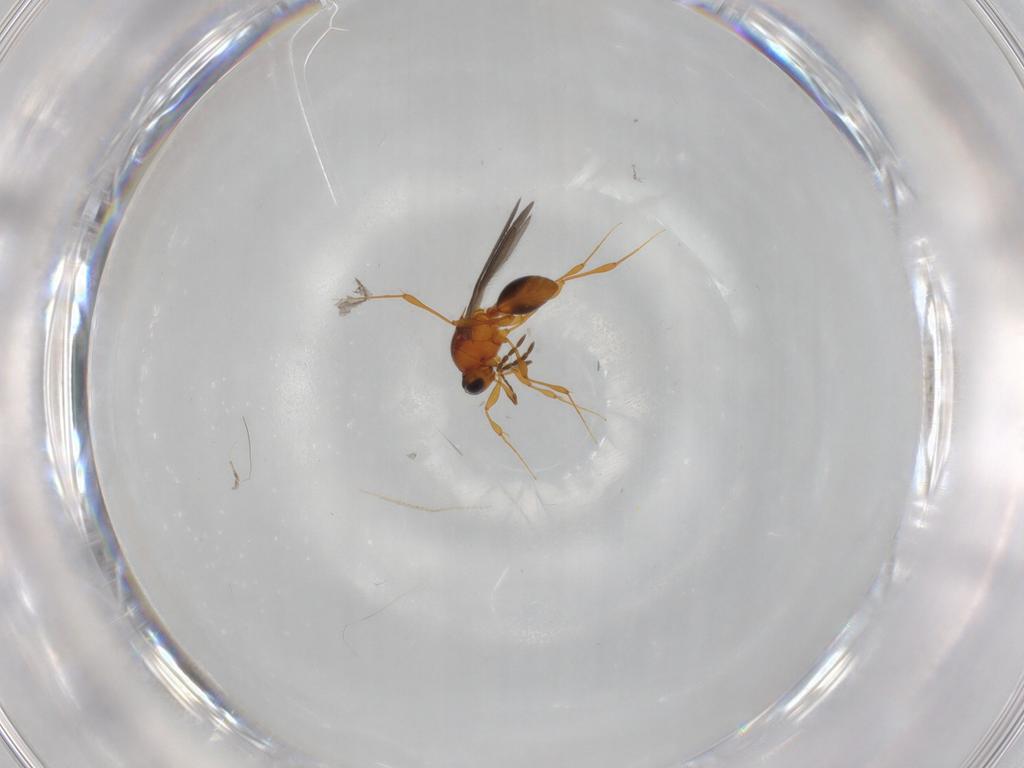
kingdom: Animalia
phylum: Arthropoda
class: Insecta
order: Hymenoptera
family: Platygastridae
